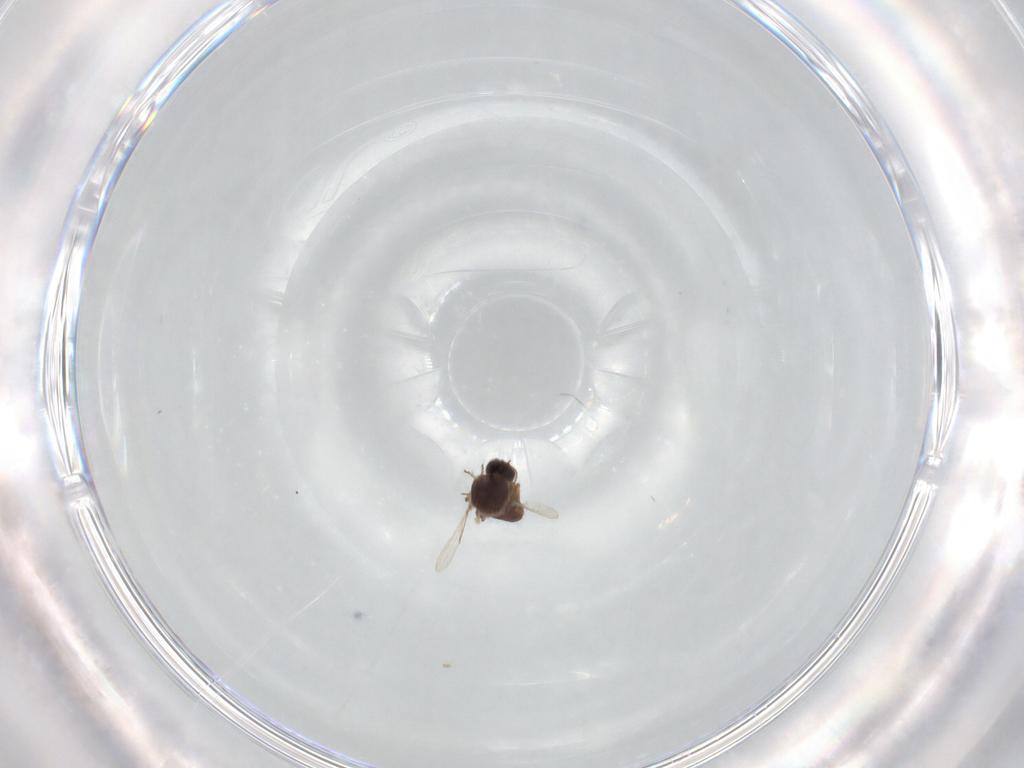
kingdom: Animalia
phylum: Arthropoda
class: Insecta
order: Diptera
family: Ceratopogonidae
